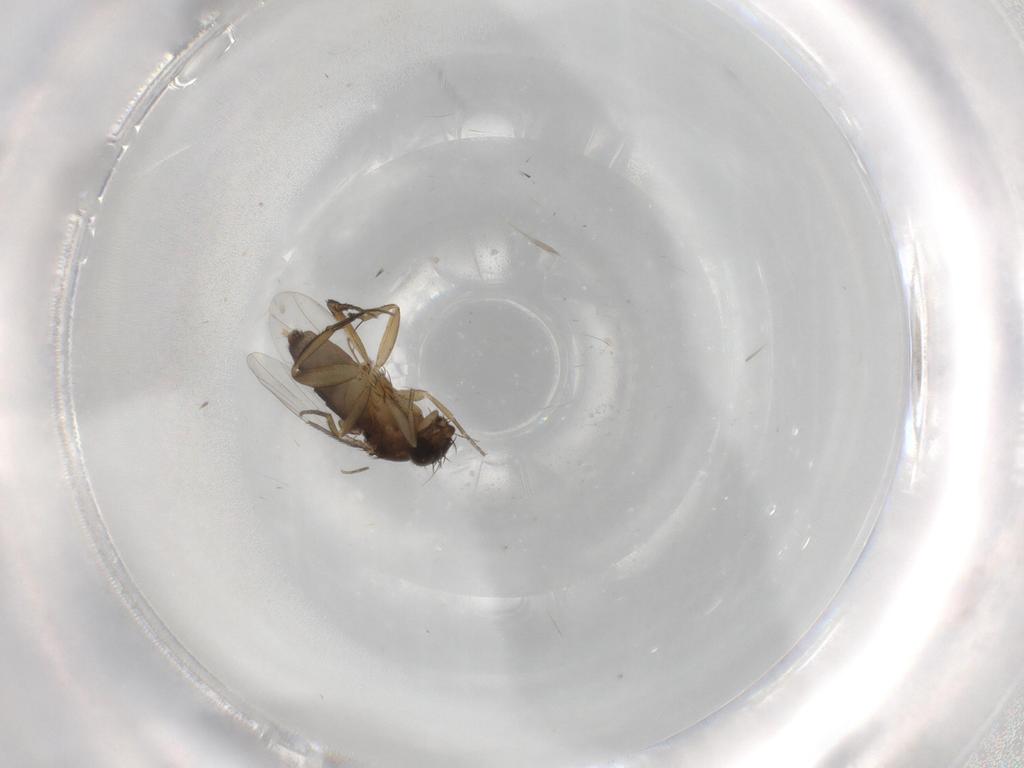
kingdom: Animalia
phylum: Arthropoda
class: Insecta
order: Diptera
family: Phoridae
